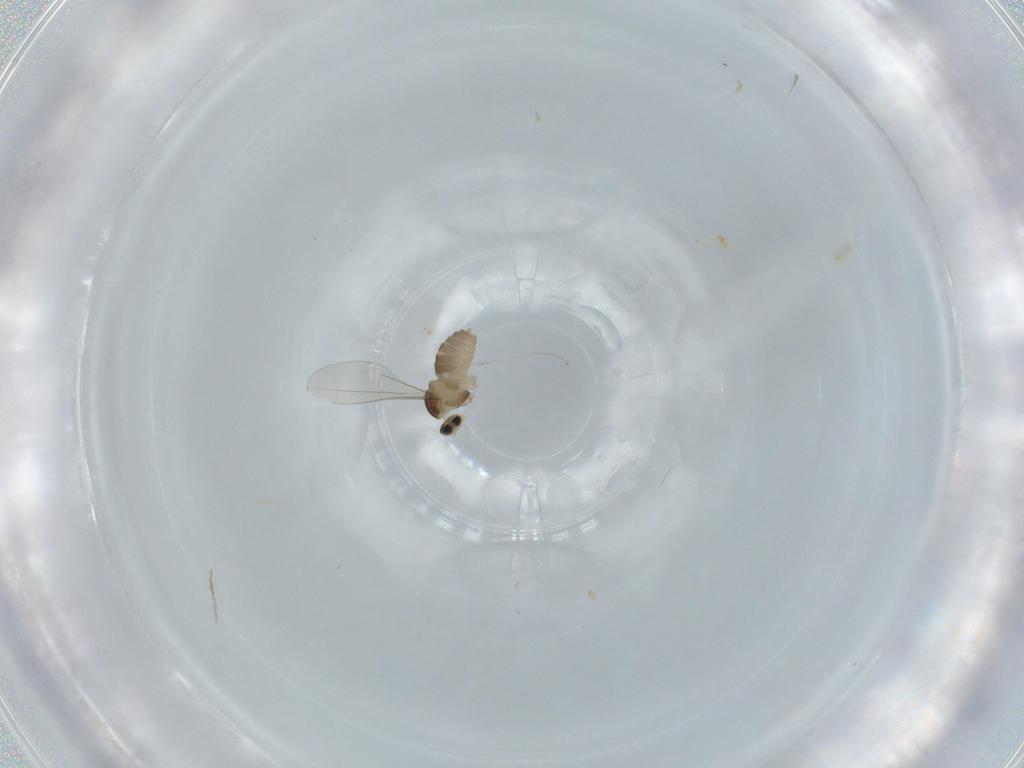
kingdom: Animalia
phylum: Arthropoda
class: Insecta
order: Diptera
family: Cecidomyiidae
